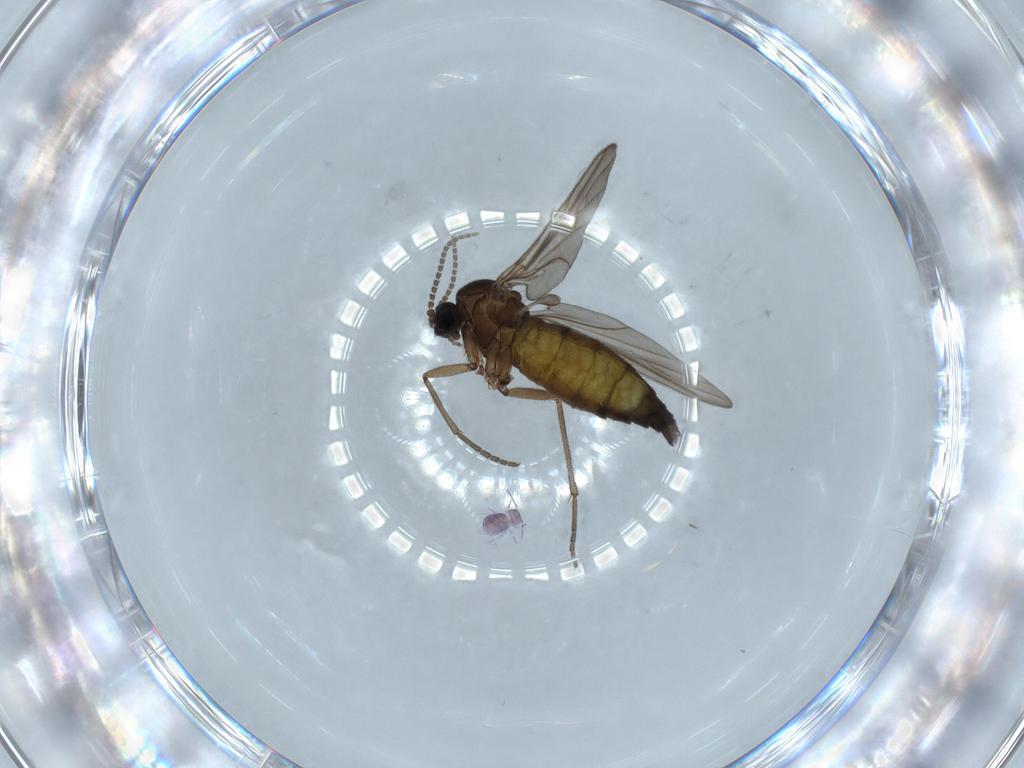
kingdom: Animalia
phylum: Arthropoda
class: Insecta
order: Diptera
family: Sciaridae
